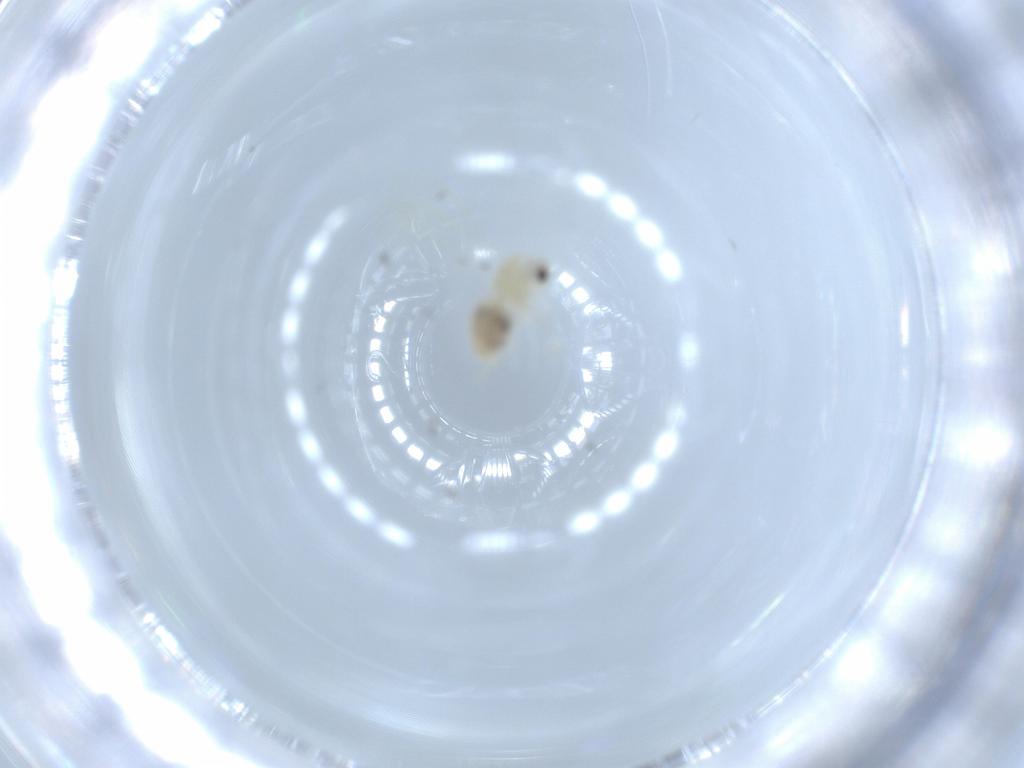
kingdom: Animalia
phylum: Arthropoda
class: Insecta
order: Hemiptera
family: Aleyrodidae
